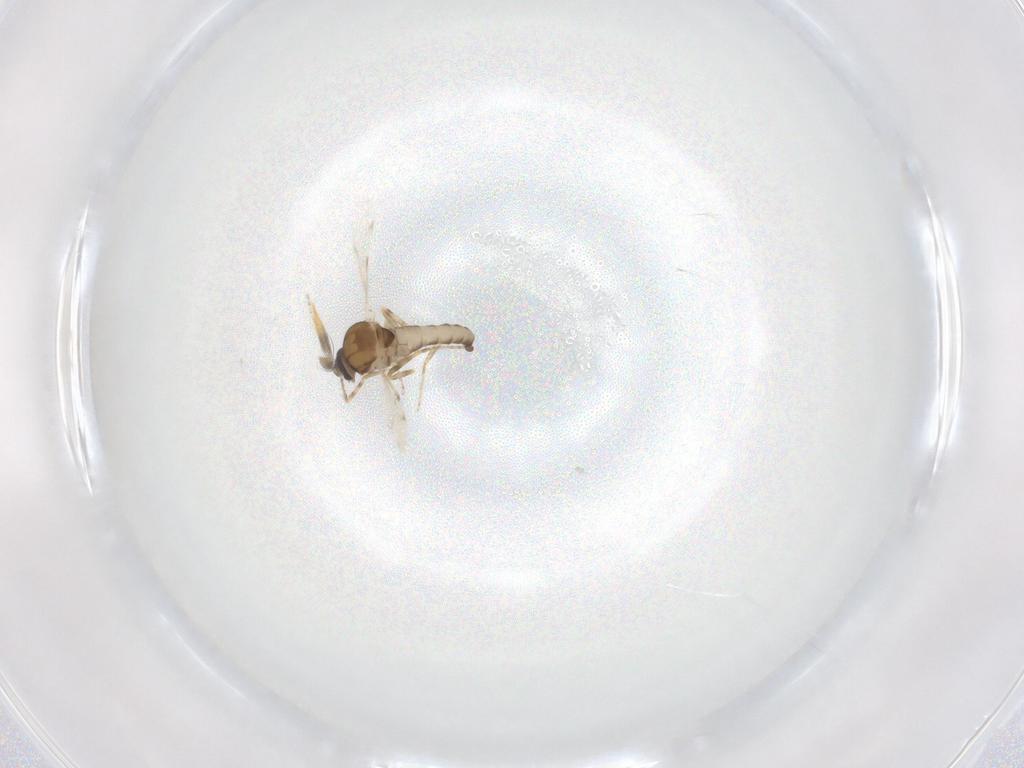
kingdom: Animalia
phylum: Arthropoda
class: Insecta
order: Diptera
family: Ceratopogonidae
